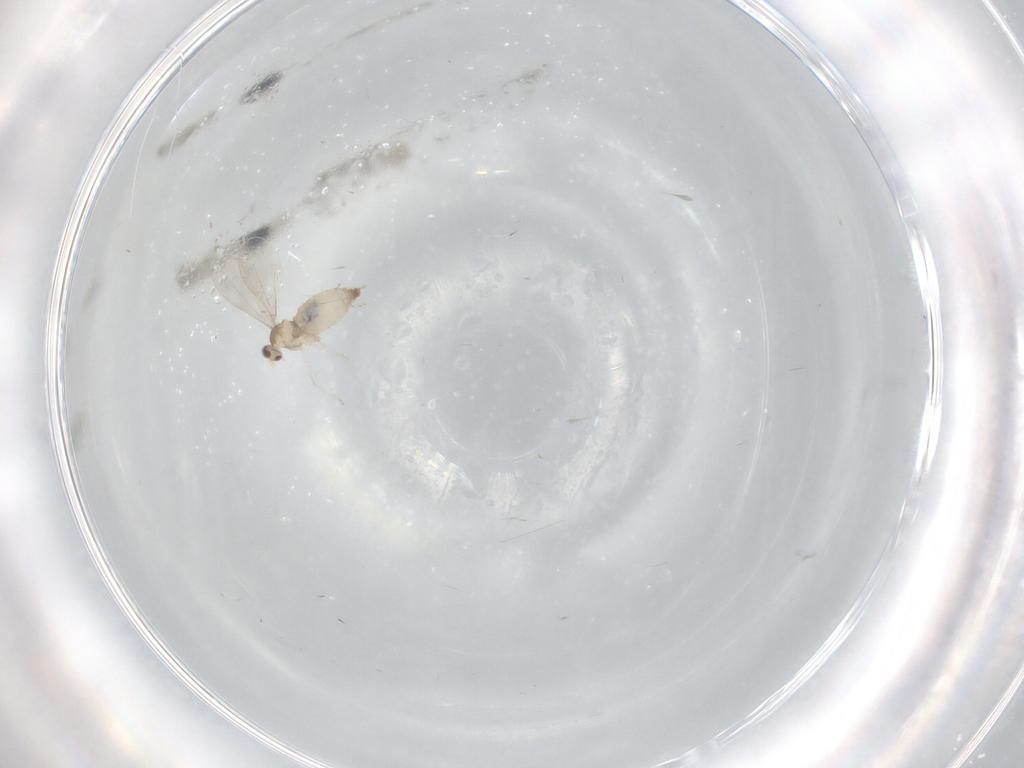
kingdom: Animalia
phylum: Arthropoda
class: Insecta
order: Diptera
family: Cecidomyiidae
